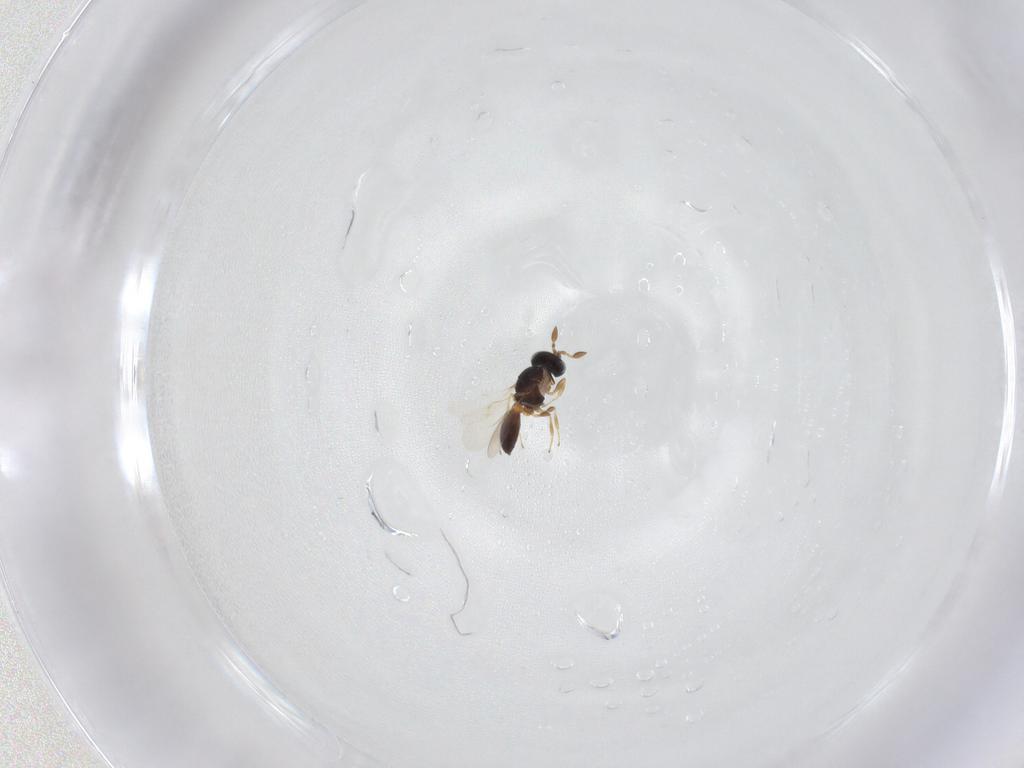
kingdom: Animalia
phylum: Arthropoda
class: Insecta
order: Hymenoptera
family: Scelionidae
